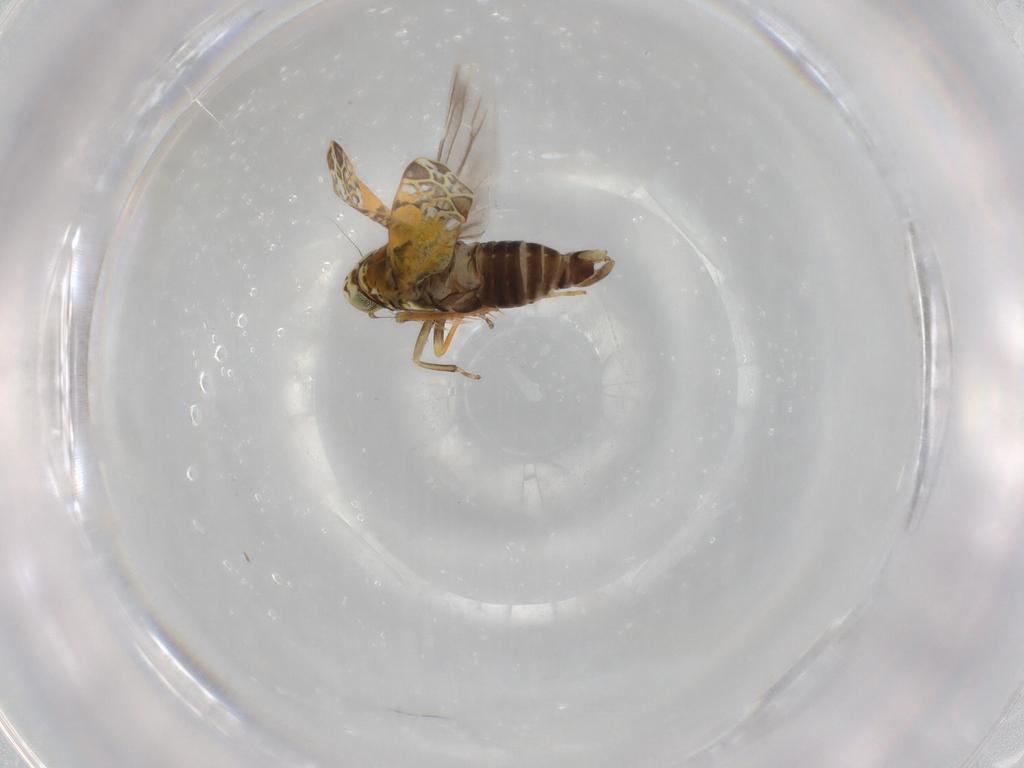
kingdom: Animalia
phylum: Arthropoda
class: Insecta
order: Hemiptera
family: Cicadellidae
